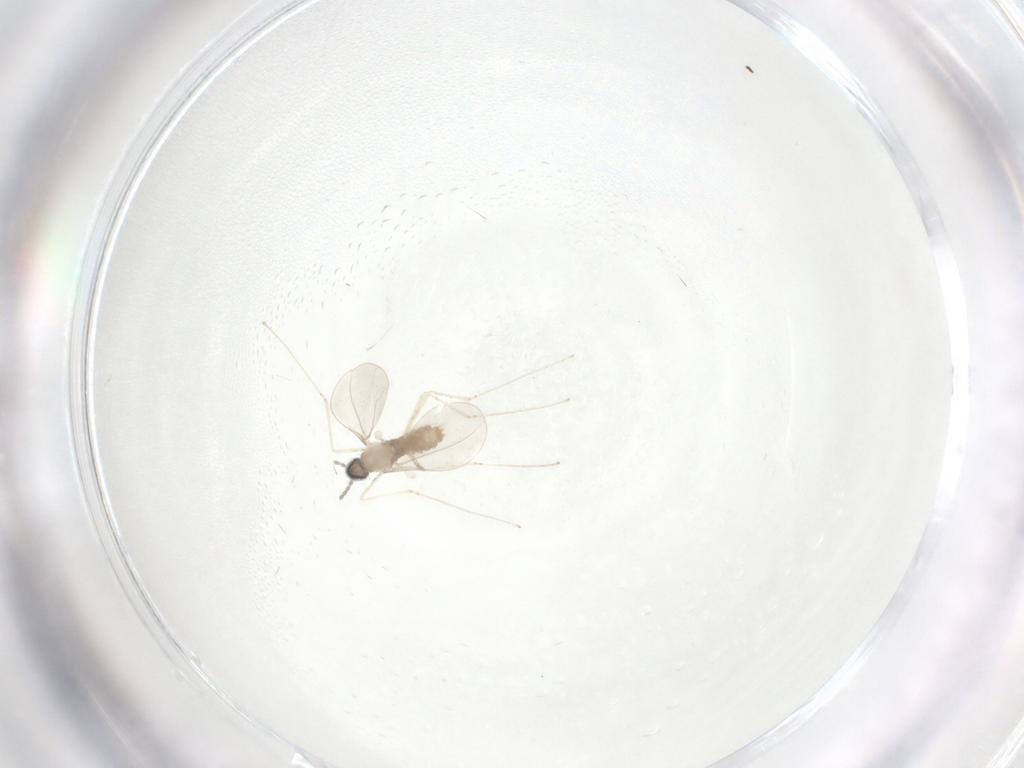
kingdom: Animalia
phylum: Arthropoda
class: Insecta
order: Diptera
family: Cecidomyiidae
